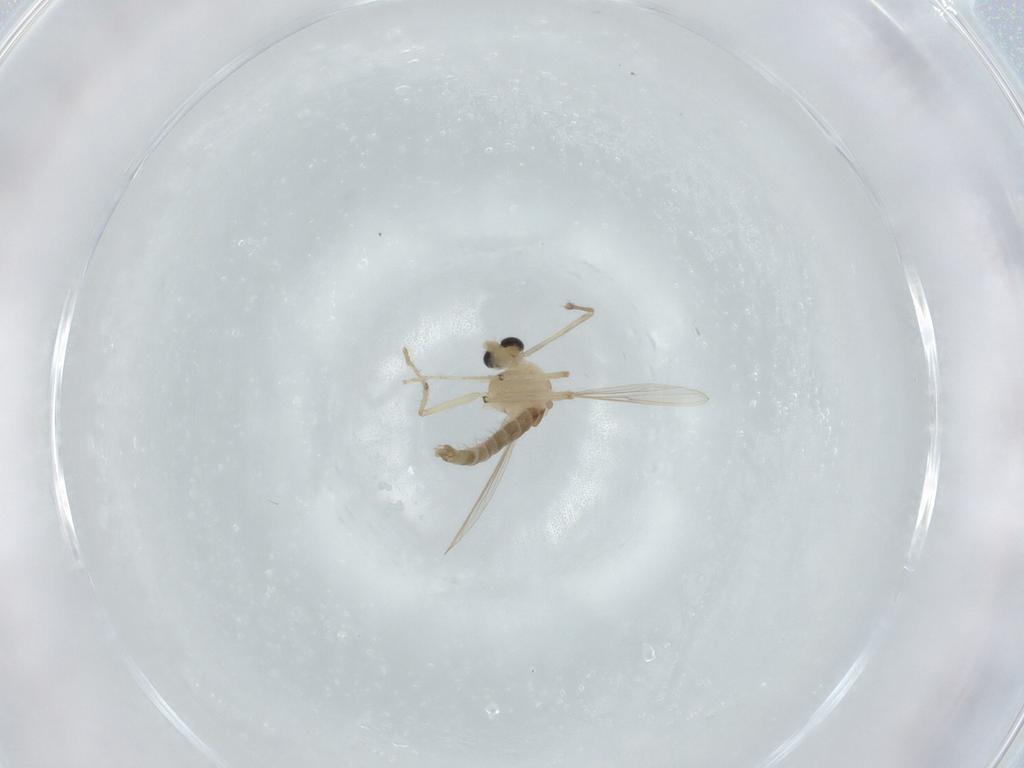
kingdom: Animalia
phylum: Arthropoda
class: Insecta
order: Diptera
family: Chironomidae
